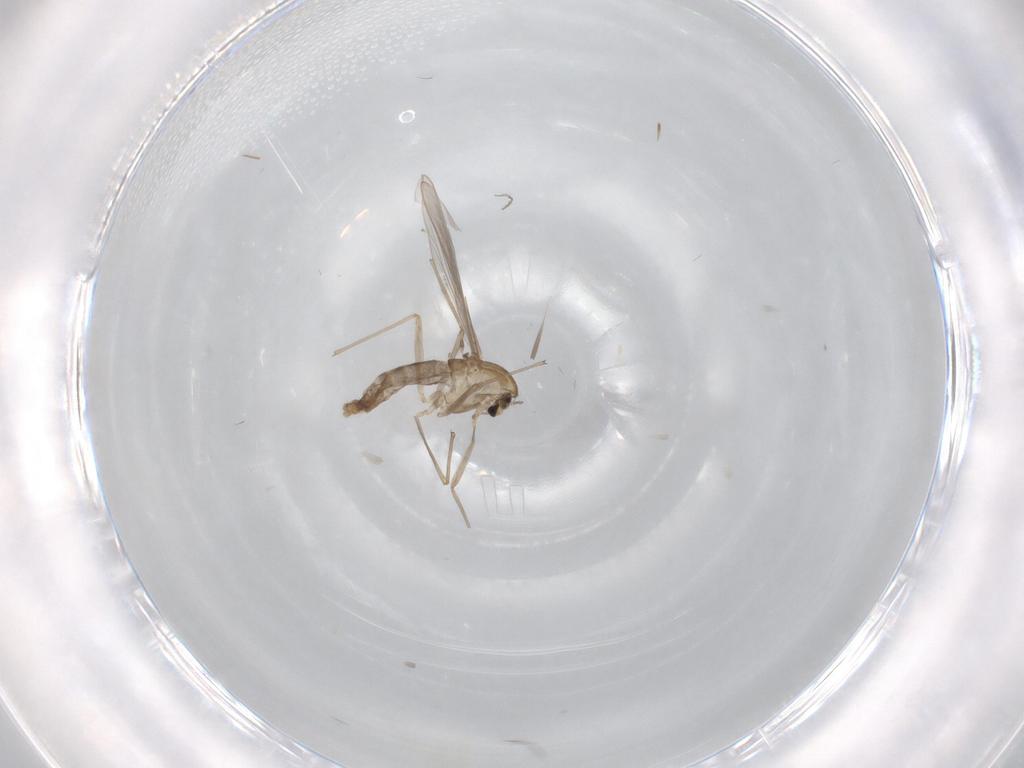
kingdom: Animalia
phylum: Arthropoda
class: Insecta
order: Diptera
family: Chironomidae
